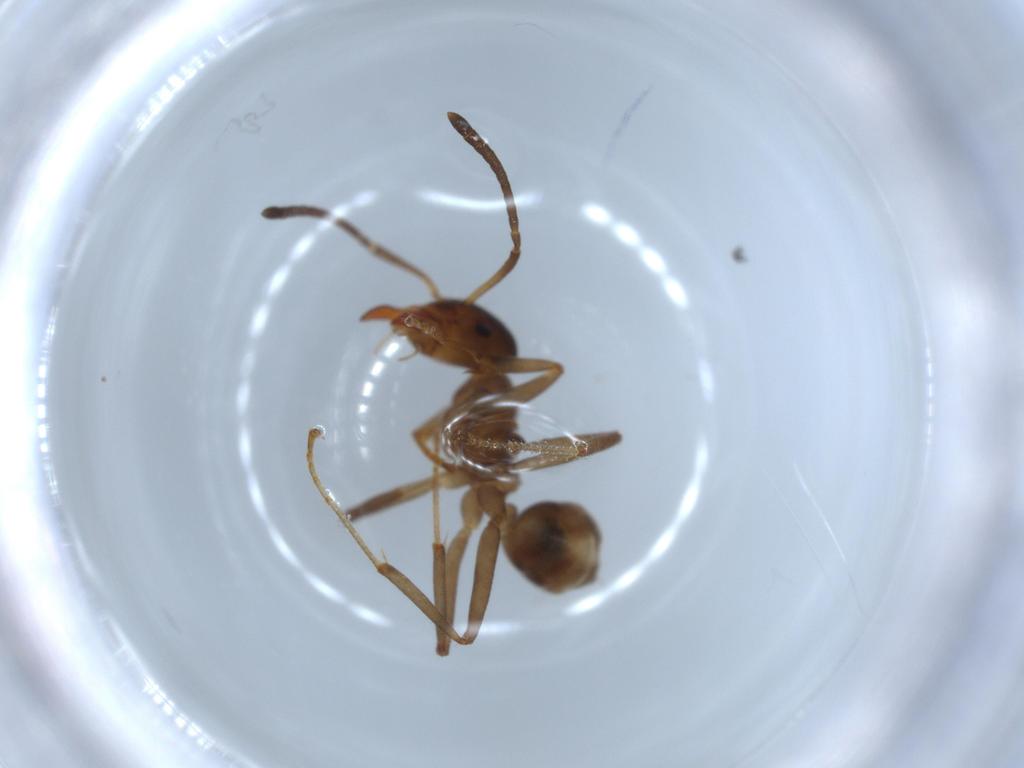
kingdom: Animalia
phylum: Arthropoda
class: Insecta
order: Hymenoptera
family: Formicidae
